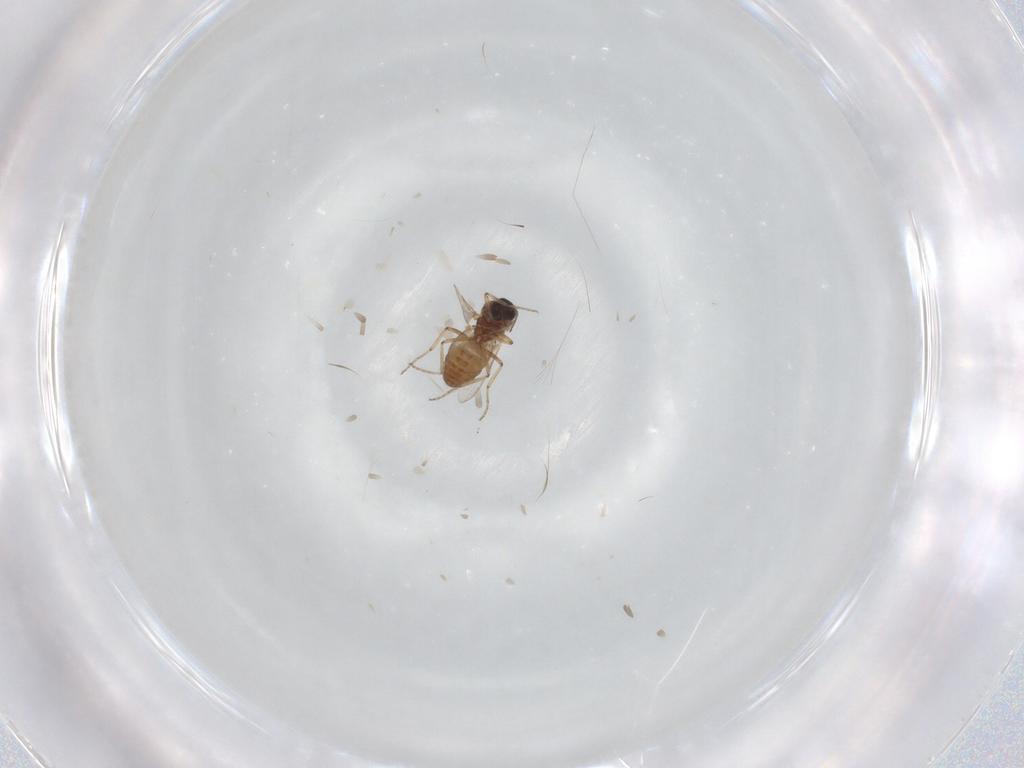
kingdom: Animalia
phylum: Arthropoda
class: Insecta
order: Diptera
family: Ceratopogonidae
